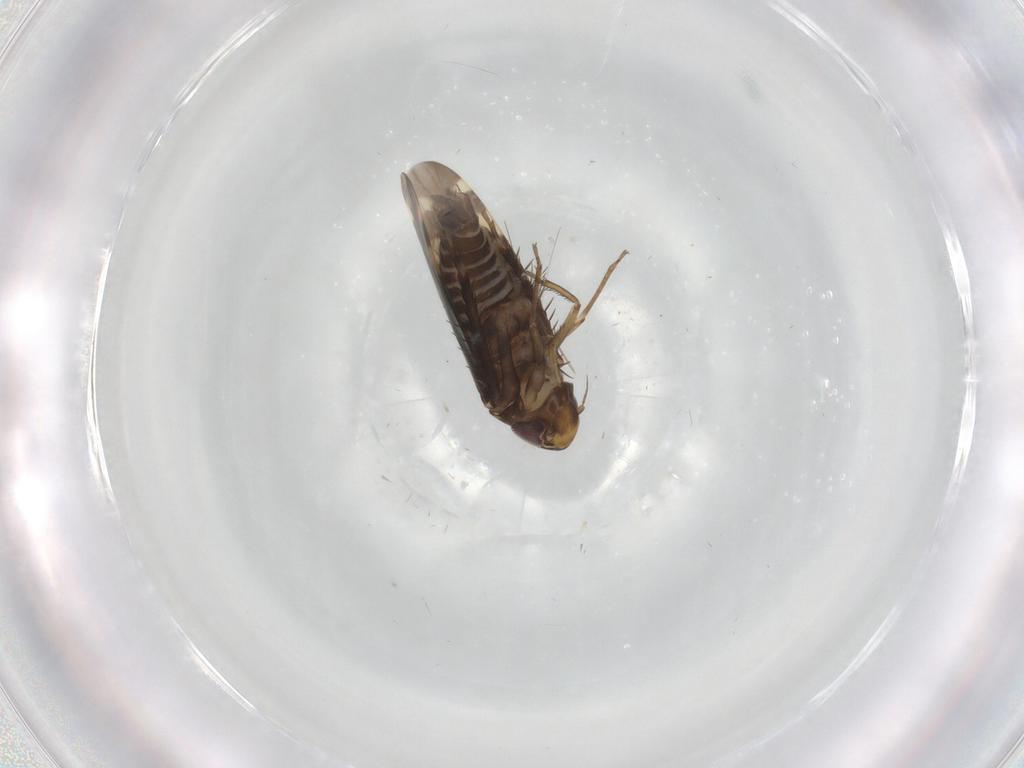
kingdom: Animalia
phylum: Arthropoda
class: Insecta
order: Hemiptera
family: Cicadellidae
